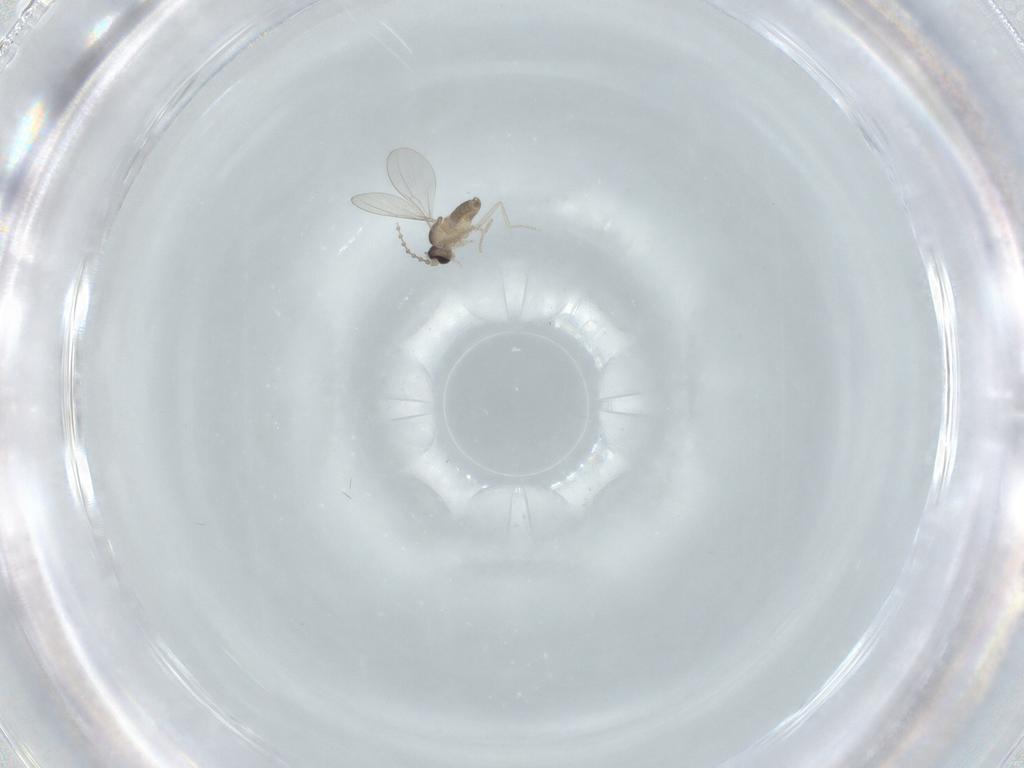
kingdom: Animalia
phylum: Arthropoda
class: Insecta
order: Diptera
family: Cecidomyiidae
